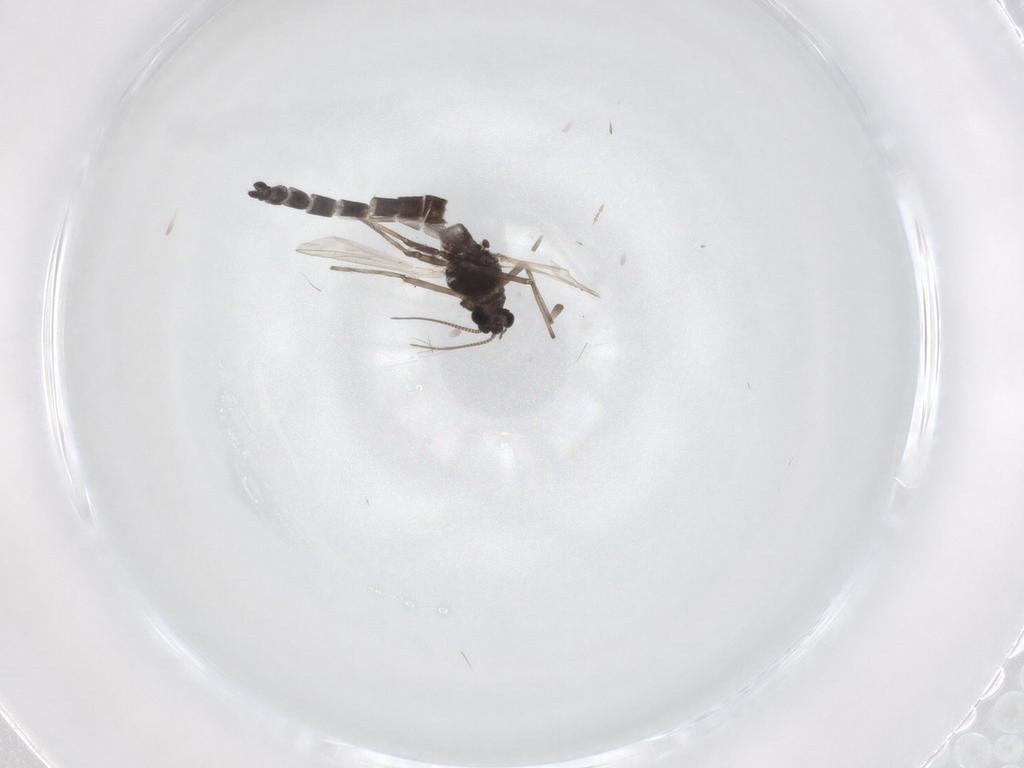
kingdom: Animalia
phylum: Arthropoda
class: Insecta
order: Diptera
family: Chironomidae
